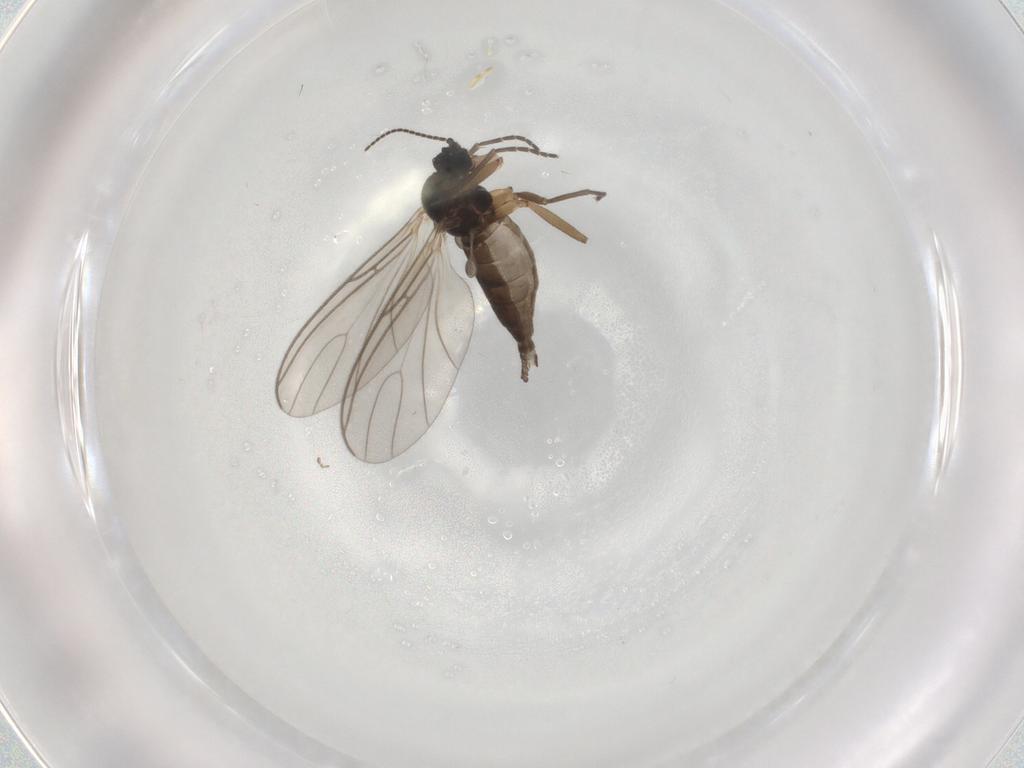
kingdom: Animalia
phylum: Arthropoda
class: Insecta
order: Diptera
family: Sciaridae
